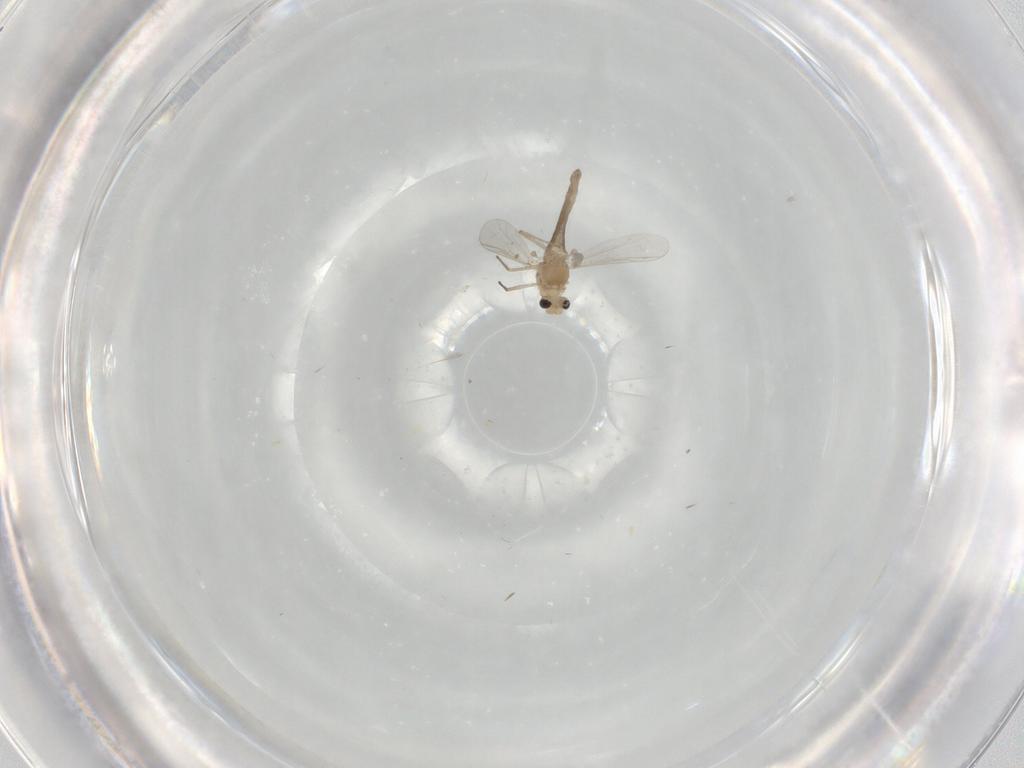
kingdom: Animalia
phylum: Arthropoda
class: Insecta
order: Diptera
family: Chironomidae
